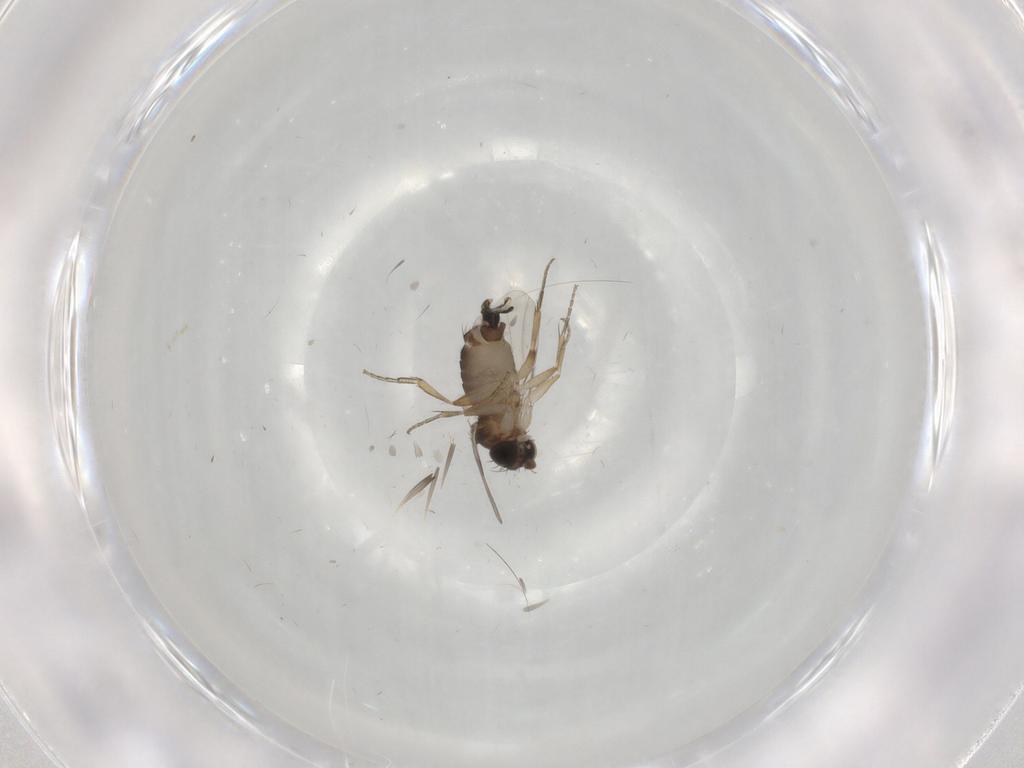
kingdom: Animalia
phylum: Arthropoda
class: Insecta
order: Diptera
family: Phoridae
